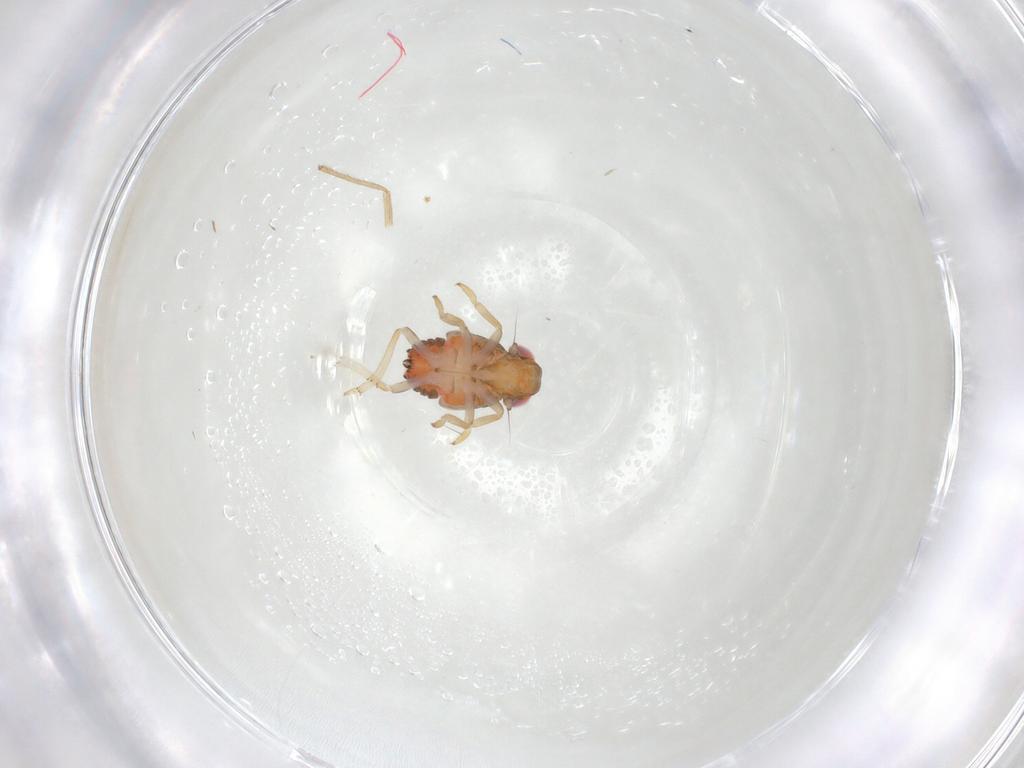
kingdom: Animalia
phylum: Arthropoda
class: Insecta
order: Hemiptera
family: Issidae
